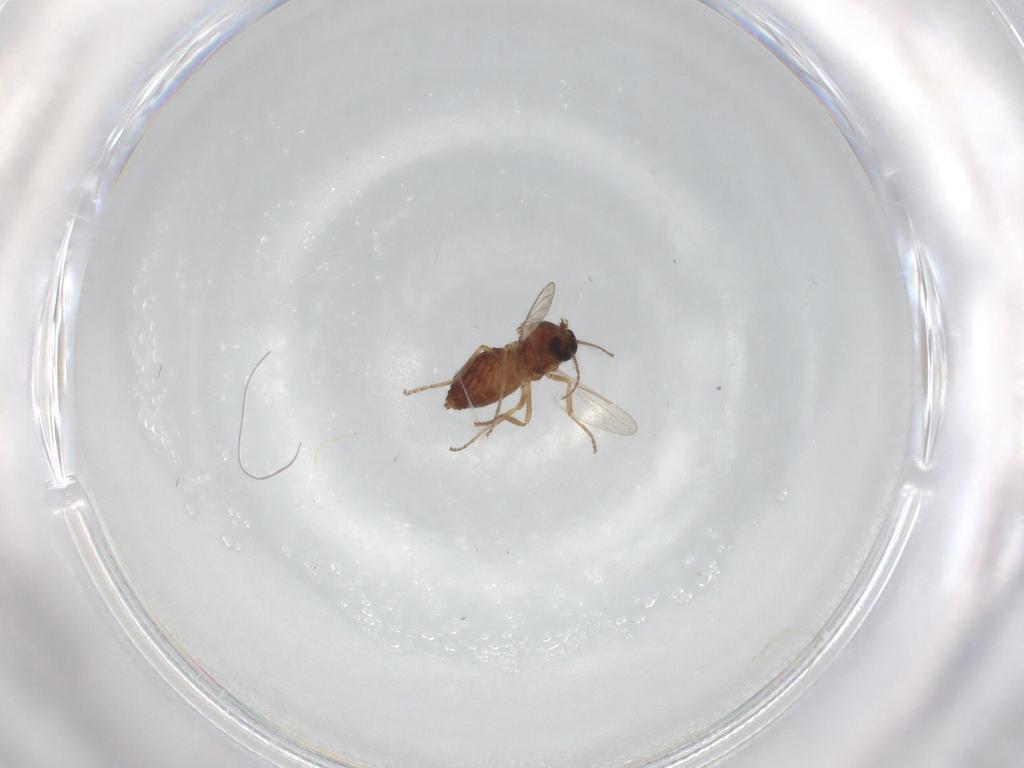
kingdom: Animalia
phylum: Arthropoda
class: Insecta
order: Diptera
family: Ceratopogonidae
